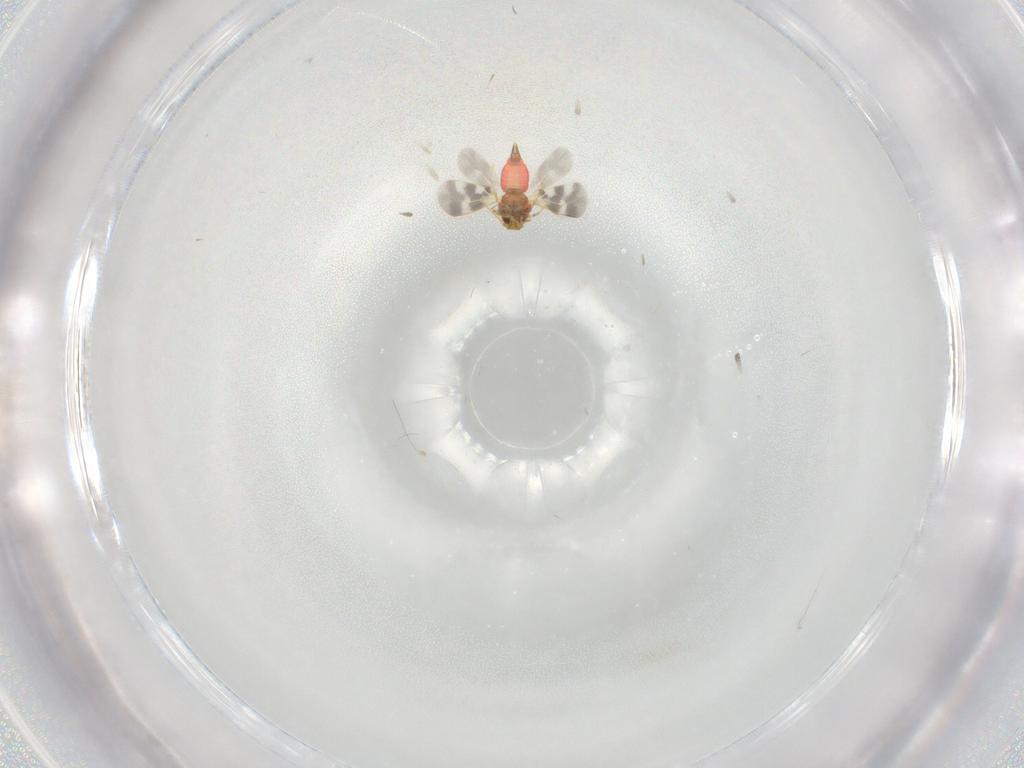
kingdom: Animalia
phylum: Arthropoda
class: Insecta
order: Diptera
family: Cecidomyiidae
